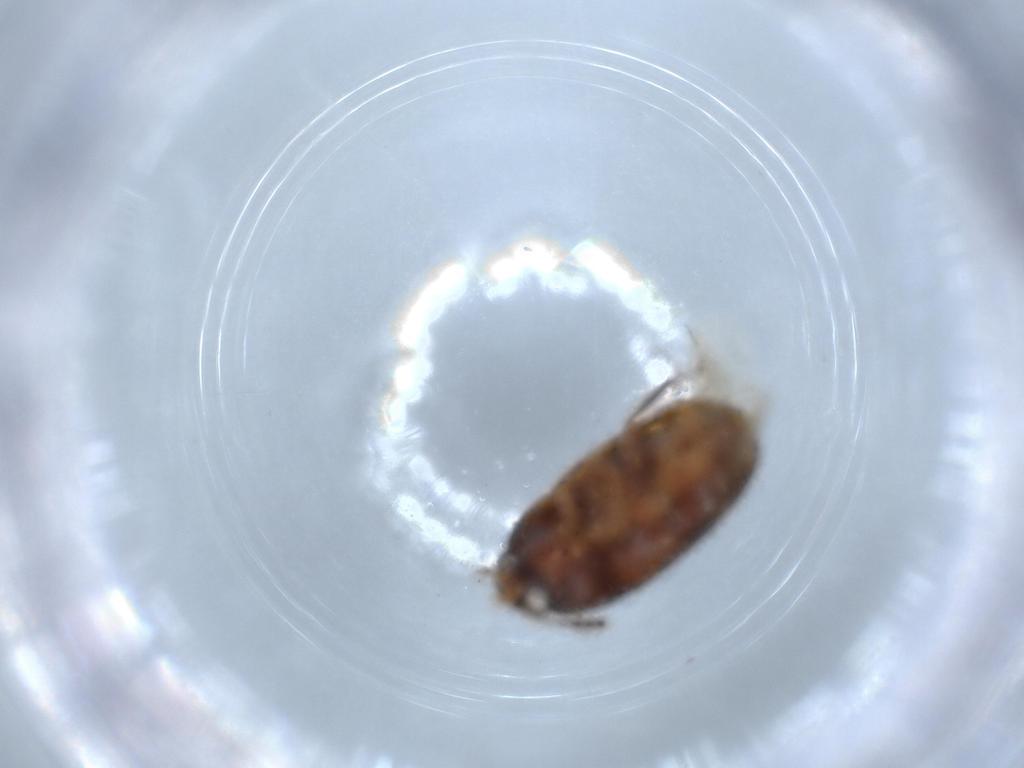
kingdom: Animalia
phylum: Arthropoda
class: Insecta
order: Coleoptera
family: Mycetophagidae
